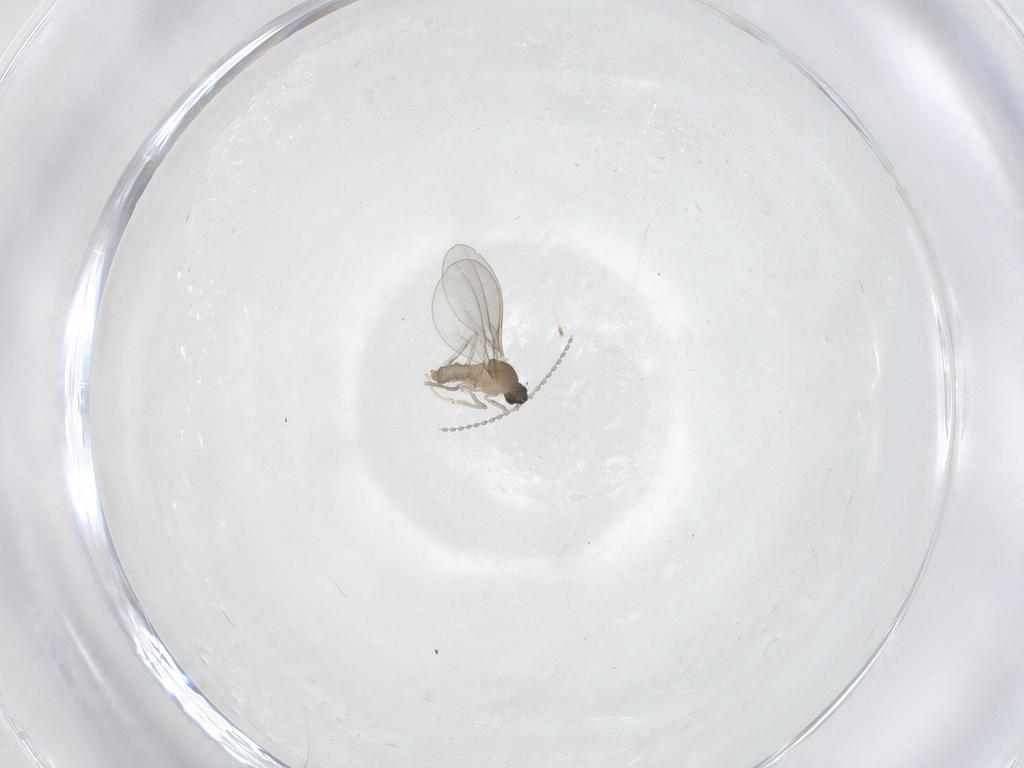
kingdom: Animalia
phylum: Arthropoda
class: Insecta
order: Diptera
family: Cecidomyiidae
